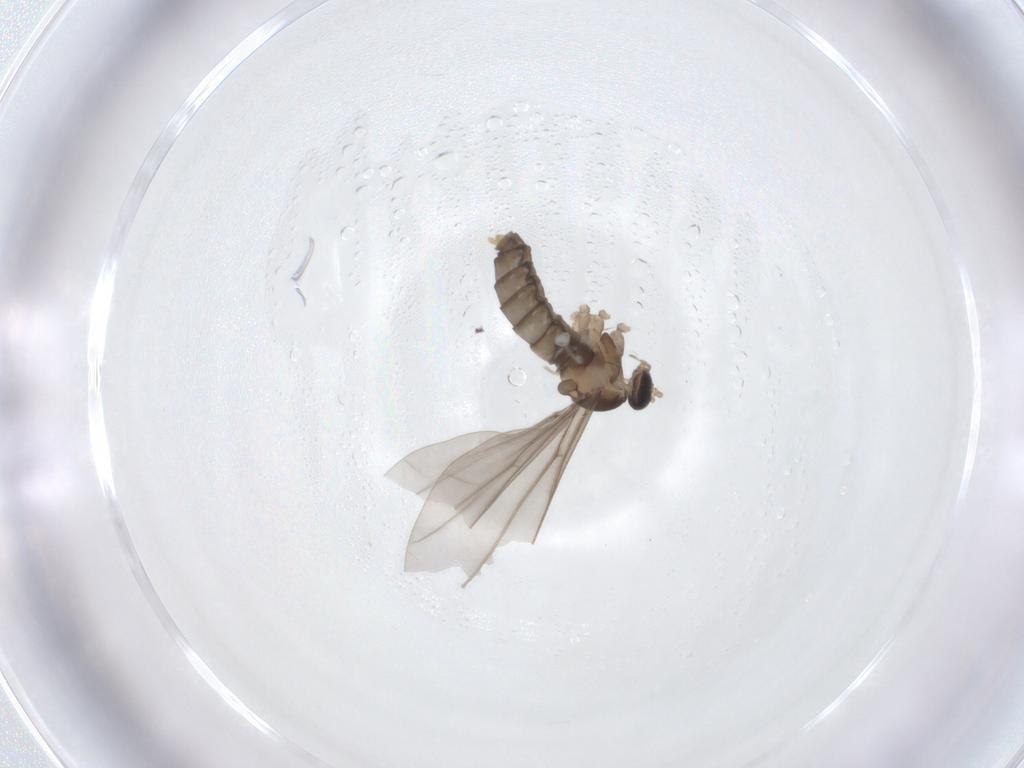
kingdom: Animalia
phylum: Arthropoda
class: Insecta
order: Diptera
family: Cecidomyiidae
